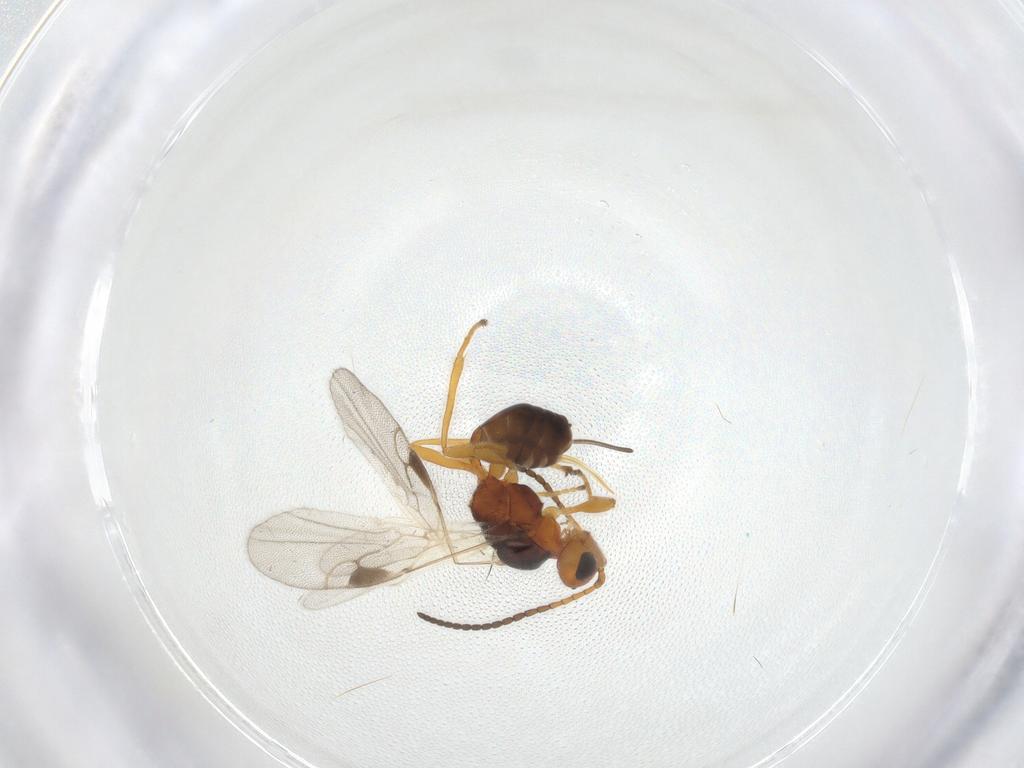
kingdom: Animalia
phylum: Arthropoda
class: Insecta
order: Hymenoptera
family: Braconidae
